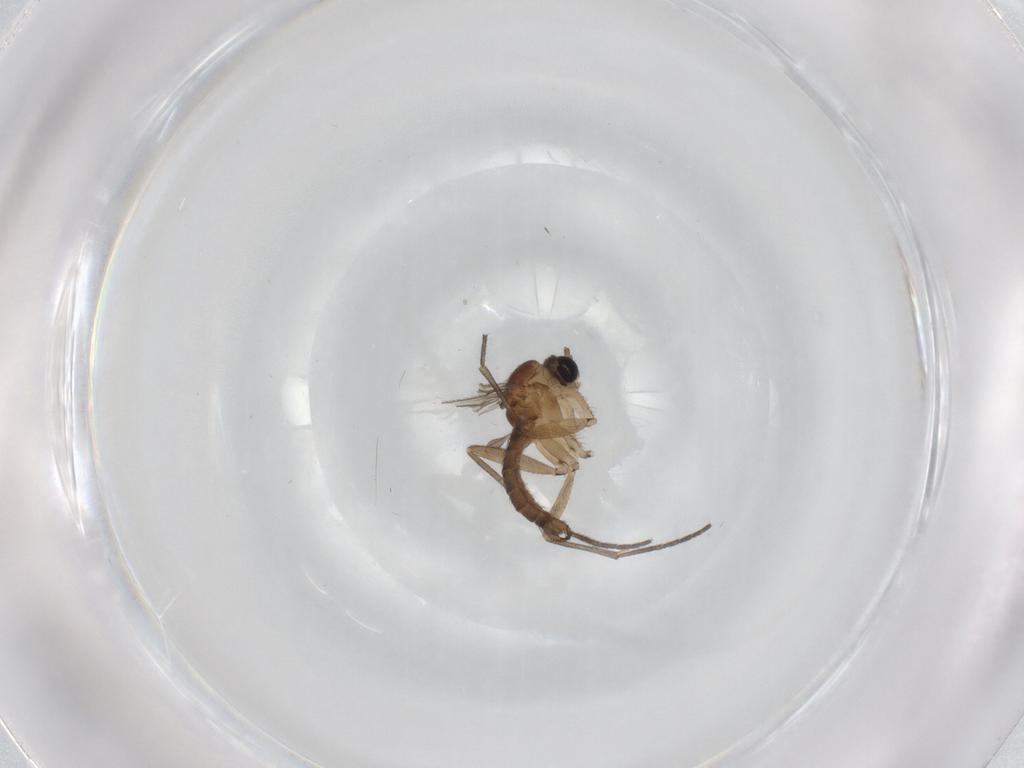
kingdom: Animalia
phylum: Arthropoda
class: Insecta
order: Diptera
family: Sciaridae
